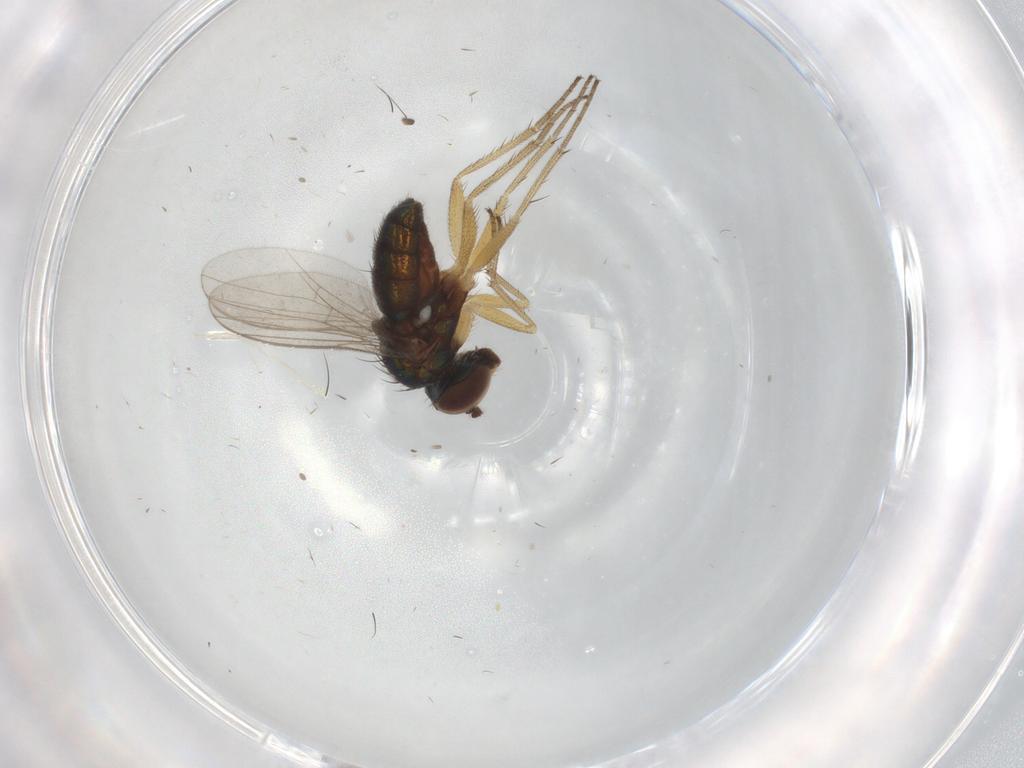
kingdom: Animalia
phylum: Arthropoda
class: Insecta
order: Diptera
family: Dolichopodidae
